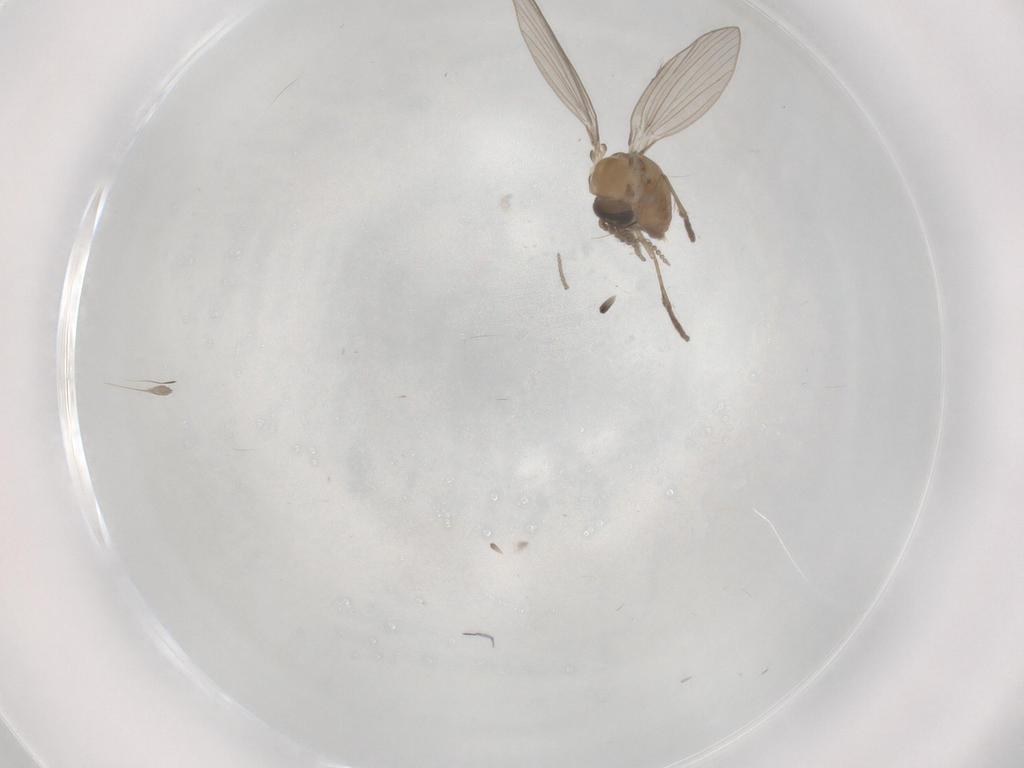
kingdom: Animalia
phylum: Arthropoda
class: Insecta
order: Diptera
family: Psychodidae
